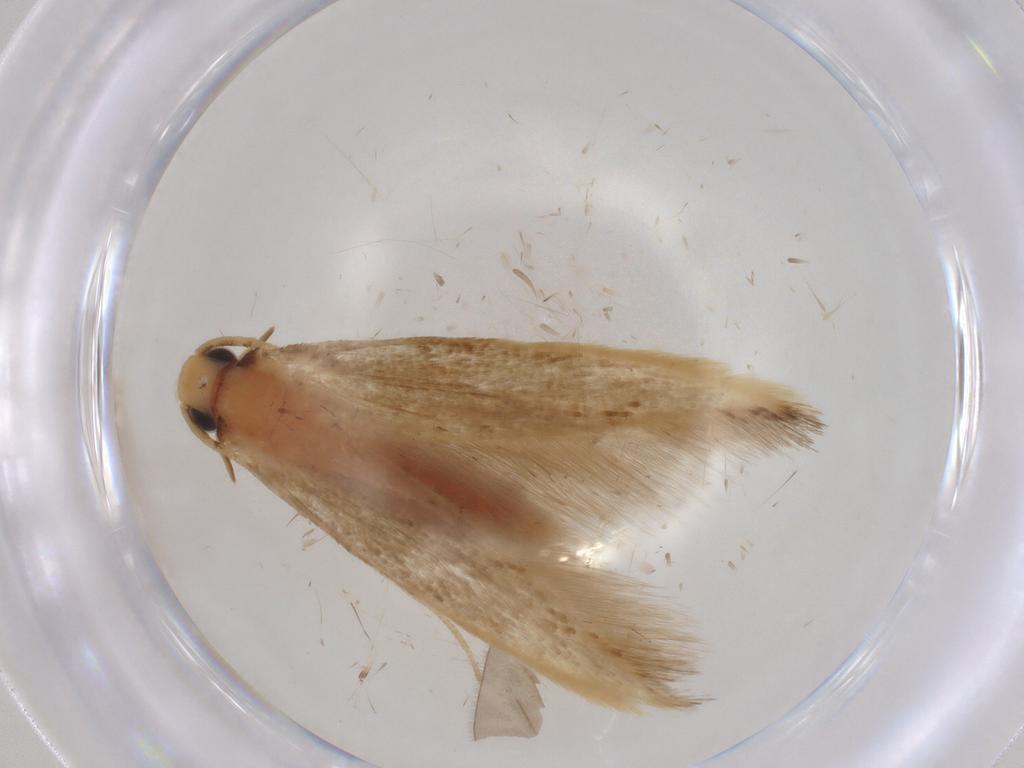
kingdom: Animalia
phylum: Arthropoda
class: Insecta
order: Lepidoptera
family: Tineidae
